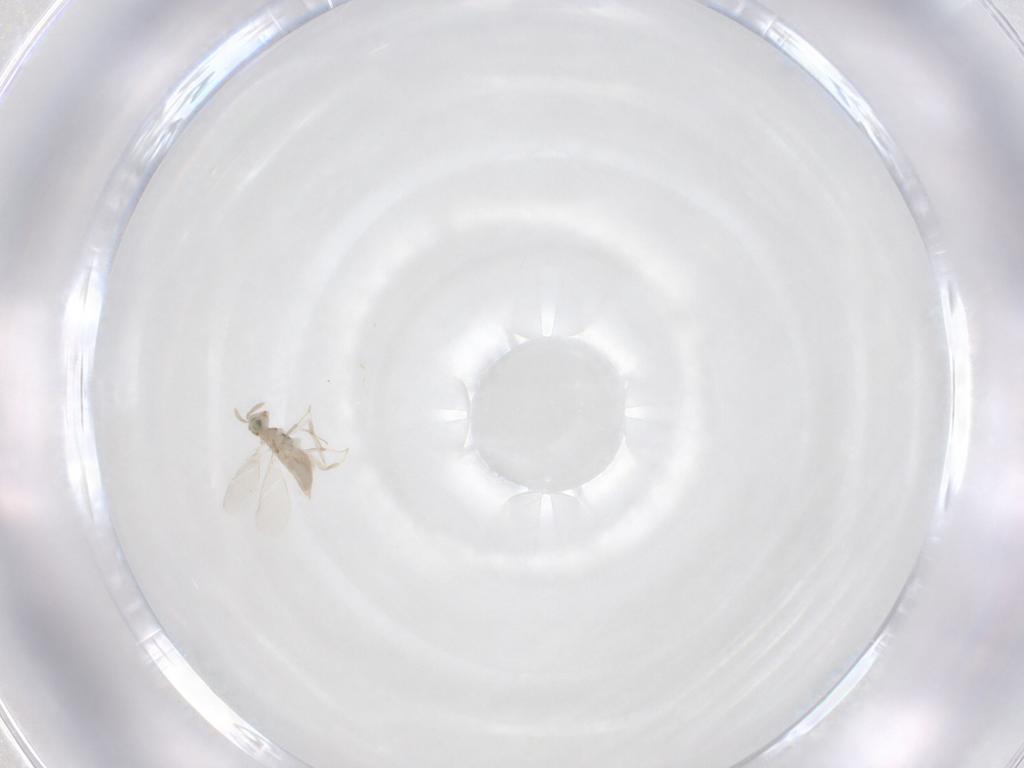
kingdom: Animalia
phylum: Arthropoda
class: Insecta
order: Hymenoptera
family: Aphelinidae
